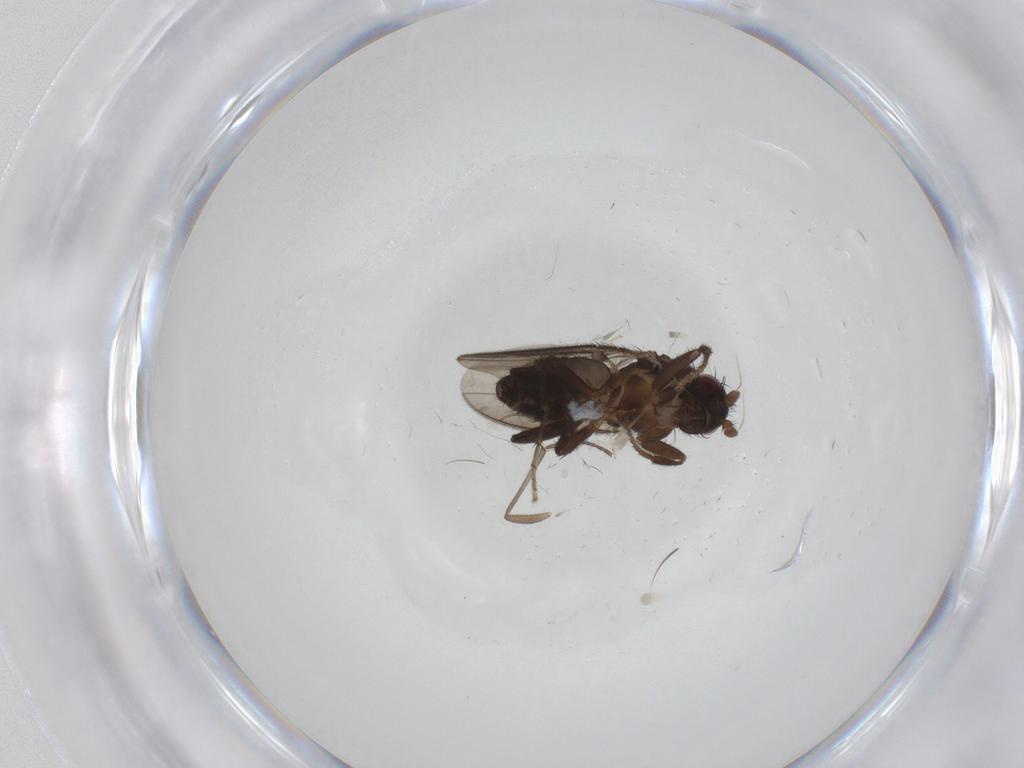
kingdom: Animalia
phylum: Arthropoda
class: Insecta
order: Diptera
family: Cecidomyiidae
